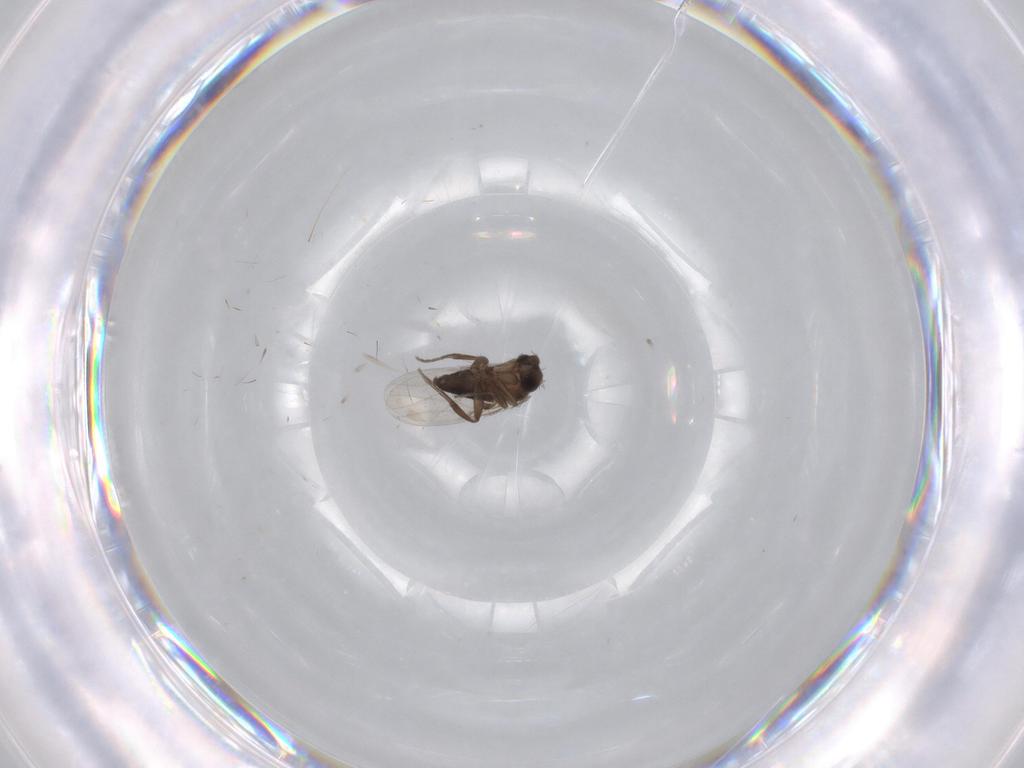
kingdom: Animalia
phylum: Arthropoda
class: Insecta
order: Diptera
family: Phoridae
